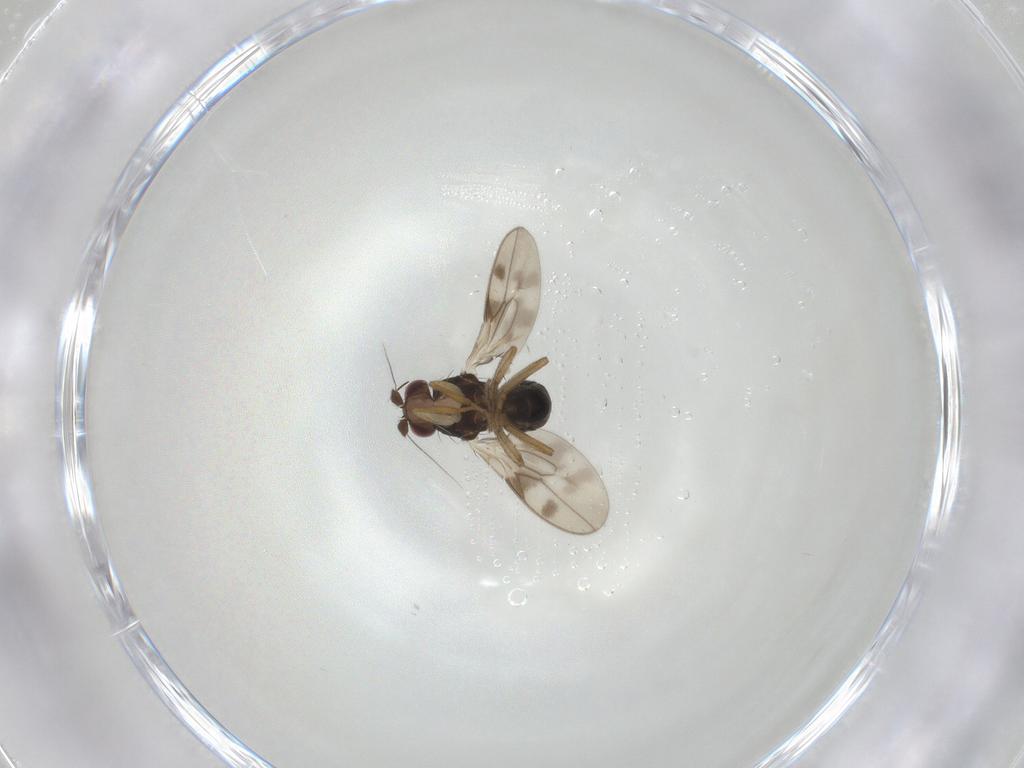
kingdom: Animalia
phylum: Arthropoda
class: Insecta
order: Diptera
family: Sphaeroceridae
